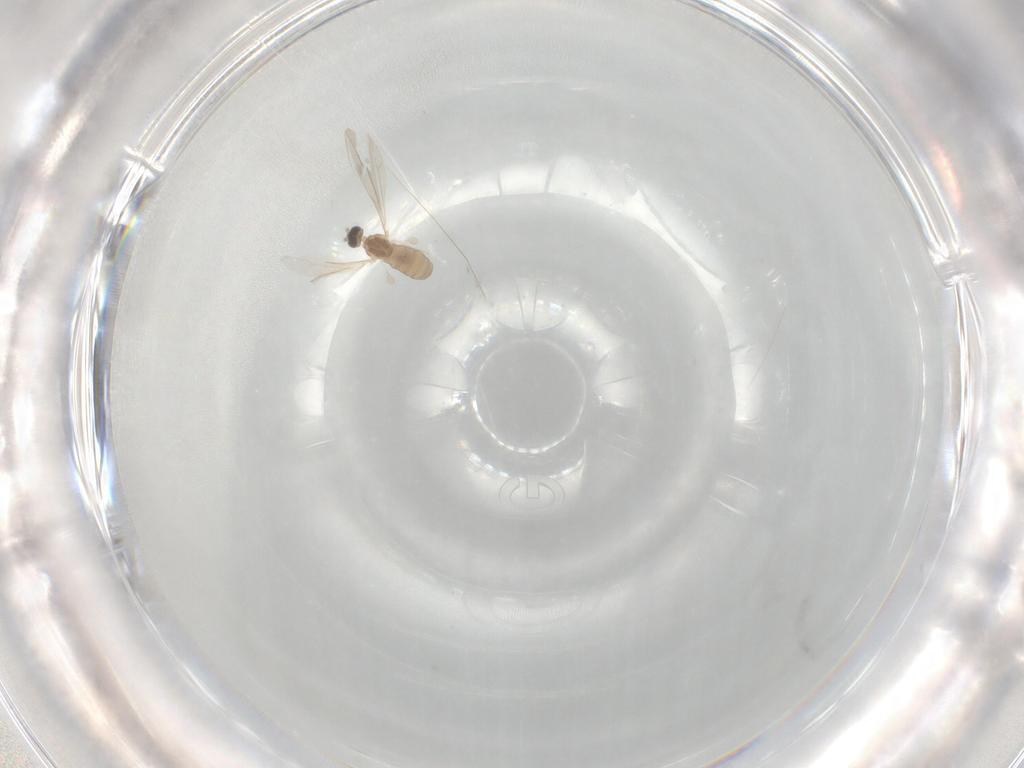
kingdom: Animalia
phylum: Arthropoda
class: Insecta
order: Diptera
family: Cecidomyiidae
